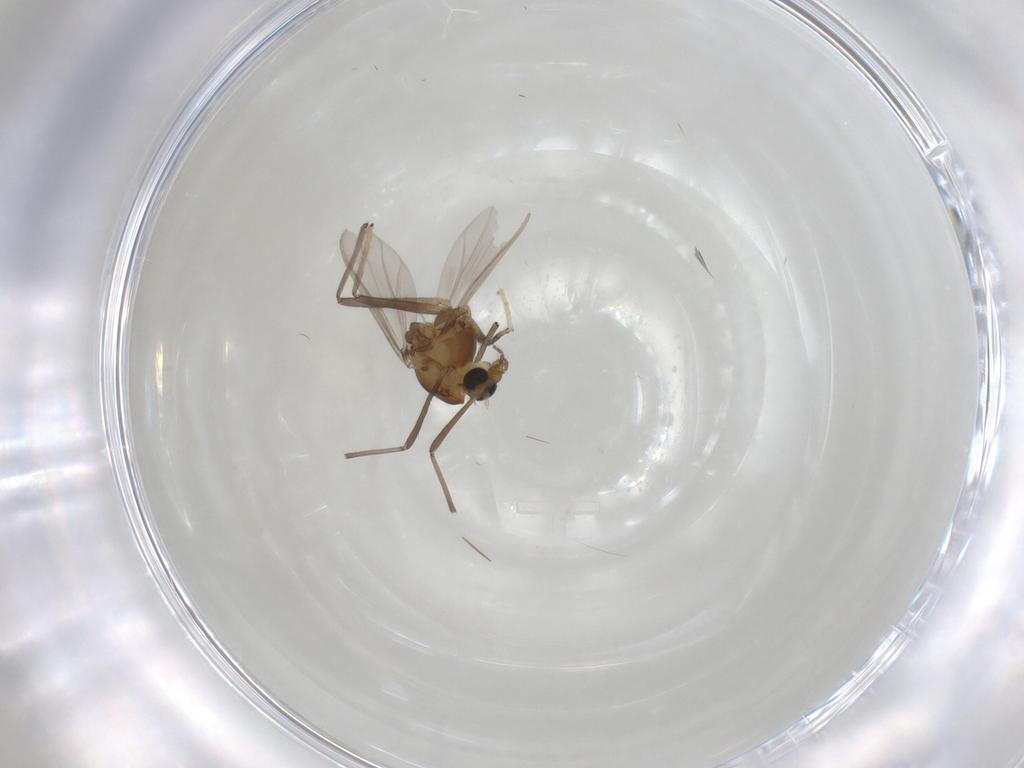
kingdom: Animalia
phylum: Arthropoda
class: Insecta
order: Diptera
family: Chironomidae
